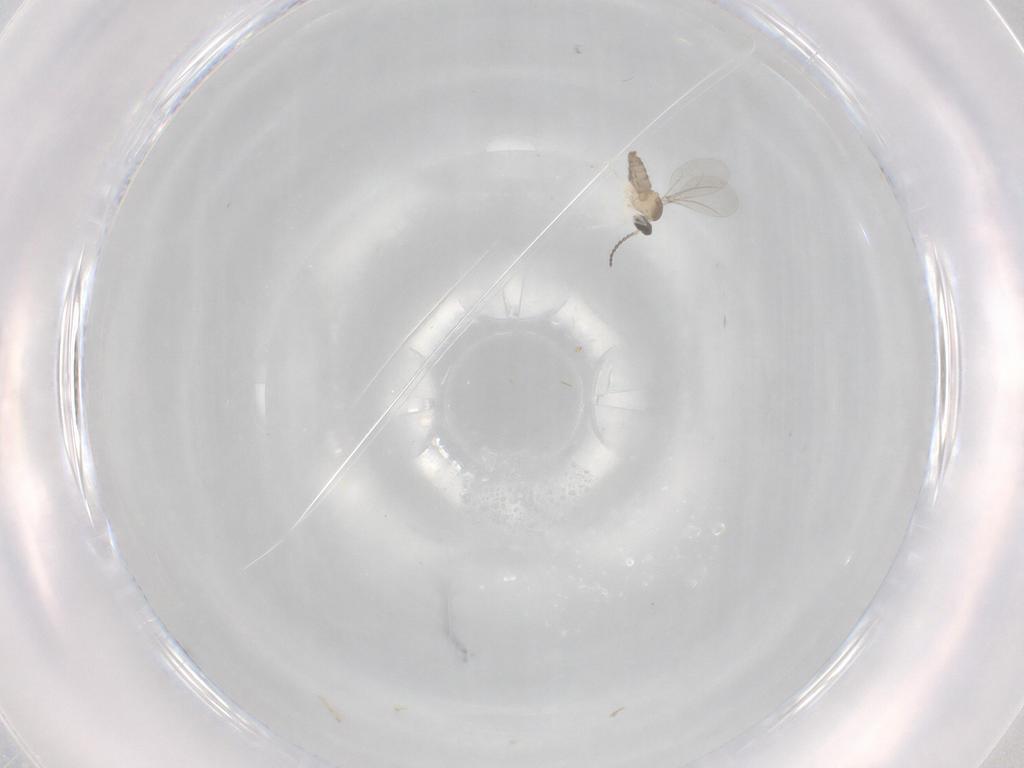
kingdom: Animalia
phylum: Arthropoda
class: Insecta
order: Diptera
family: Cecidomyiidae
